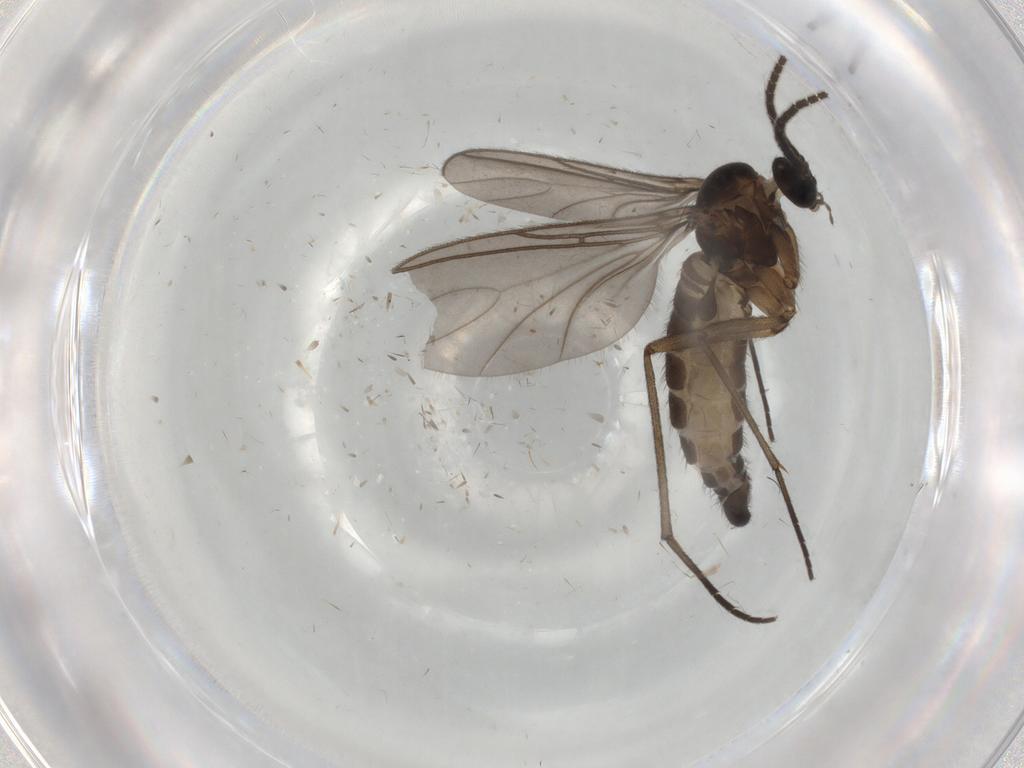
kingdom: Animalia
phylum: Arthropoda
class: Insecta
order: Diptera
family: Sciaridae
